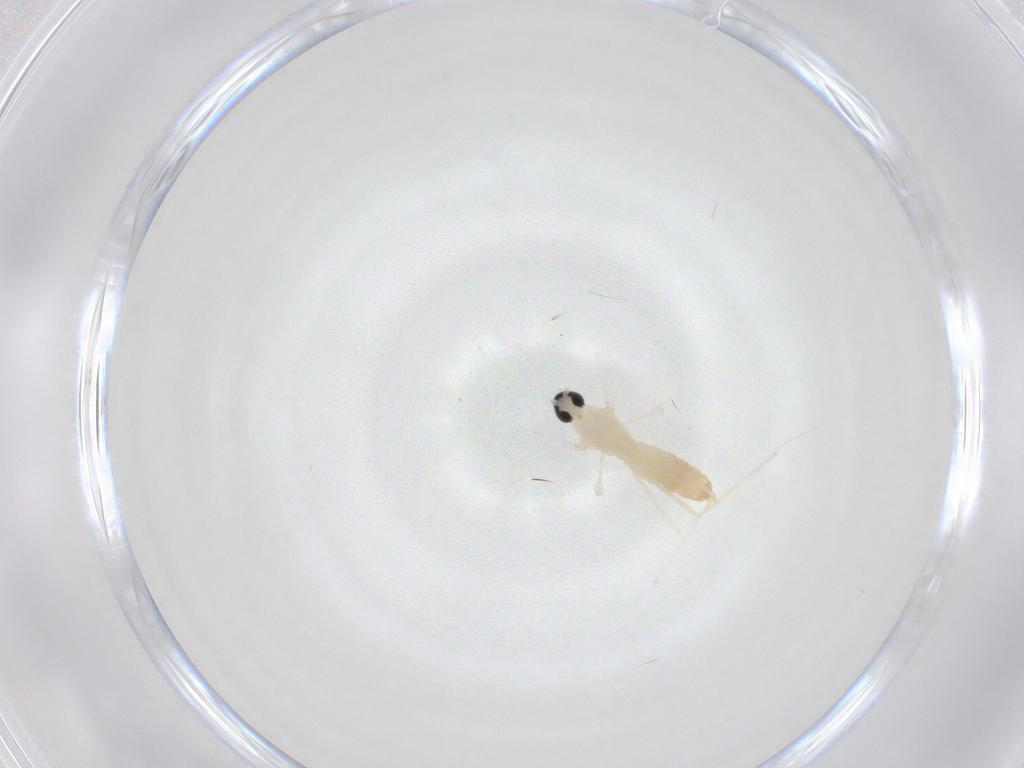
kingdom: Animalia
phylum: Arthropoda
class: Insecta
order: Diptera
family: Cecidomyiidae
